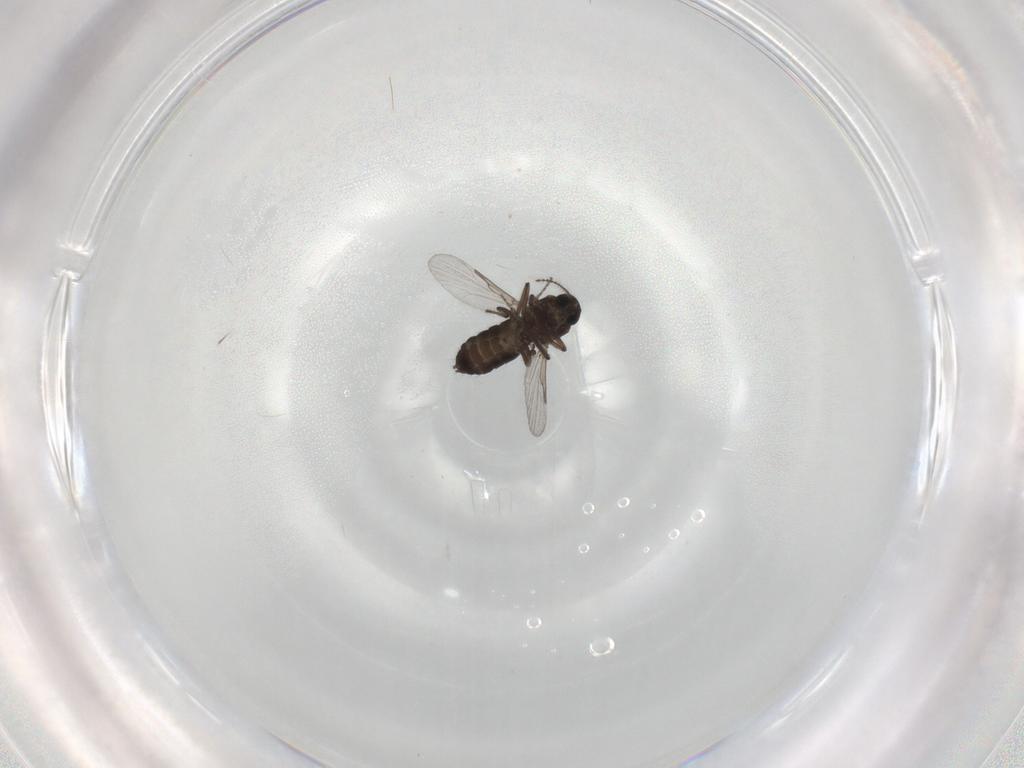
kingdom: Animalia
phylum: Arthropoda
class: Insecta
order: Diptera
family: Ceratopogonidae
